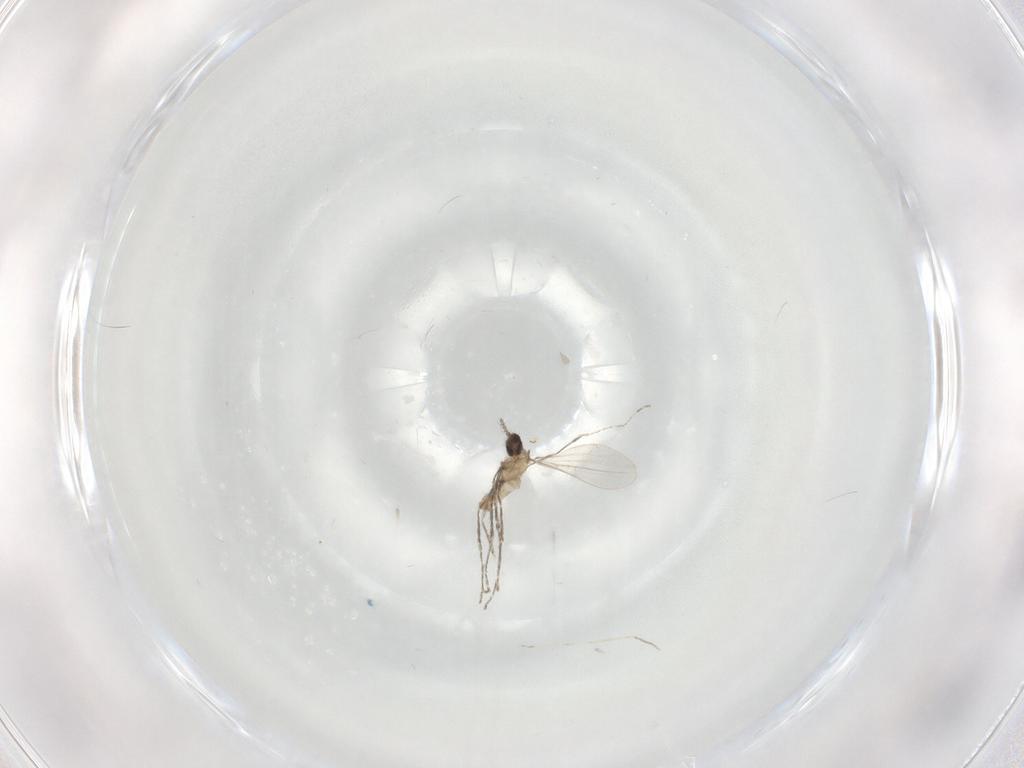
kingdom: Animalia
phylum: Arthropoda
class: Insecta
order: Diptera
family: Cecidomyiidae
